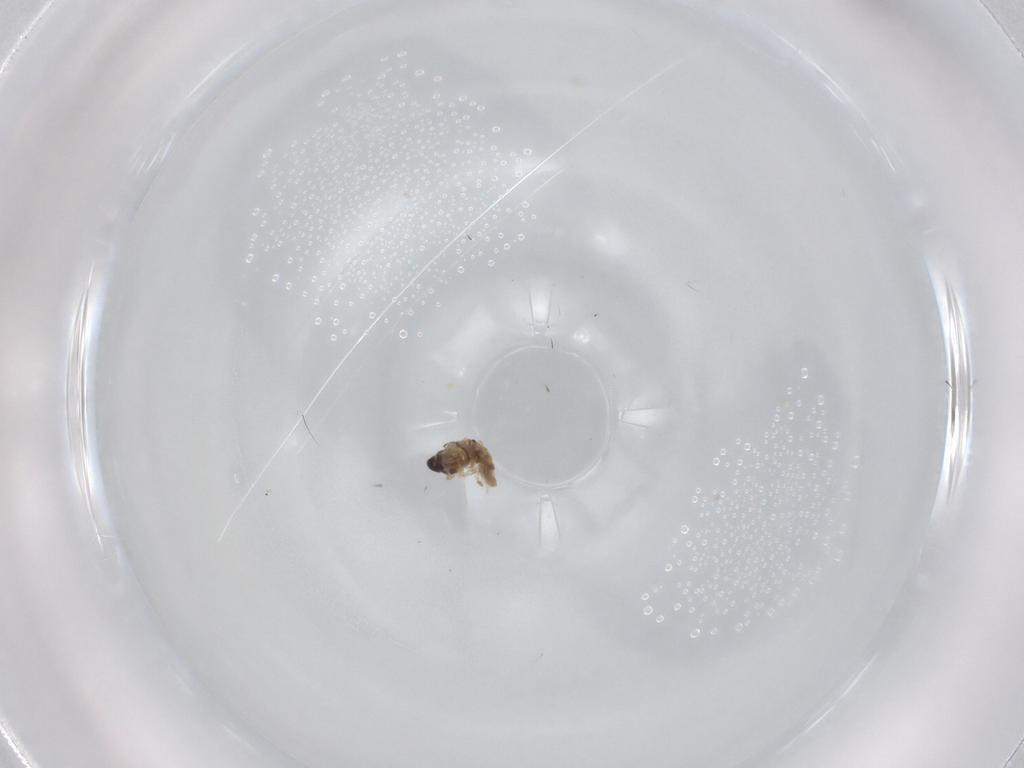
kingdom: Animalia
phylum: Arthropoda
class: Insecta
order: Diptera
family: Cecidomyiidae
